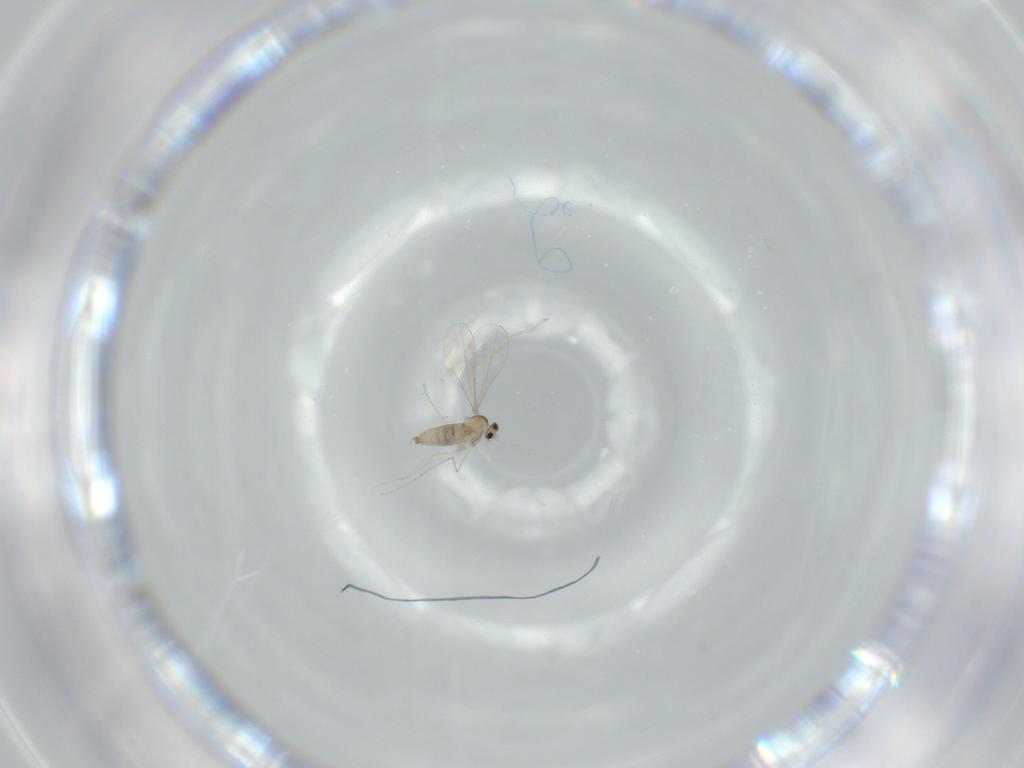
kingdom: Animalia
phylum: Arthropoda
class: Insecta
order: Diptera
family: Cecidomyiidae
